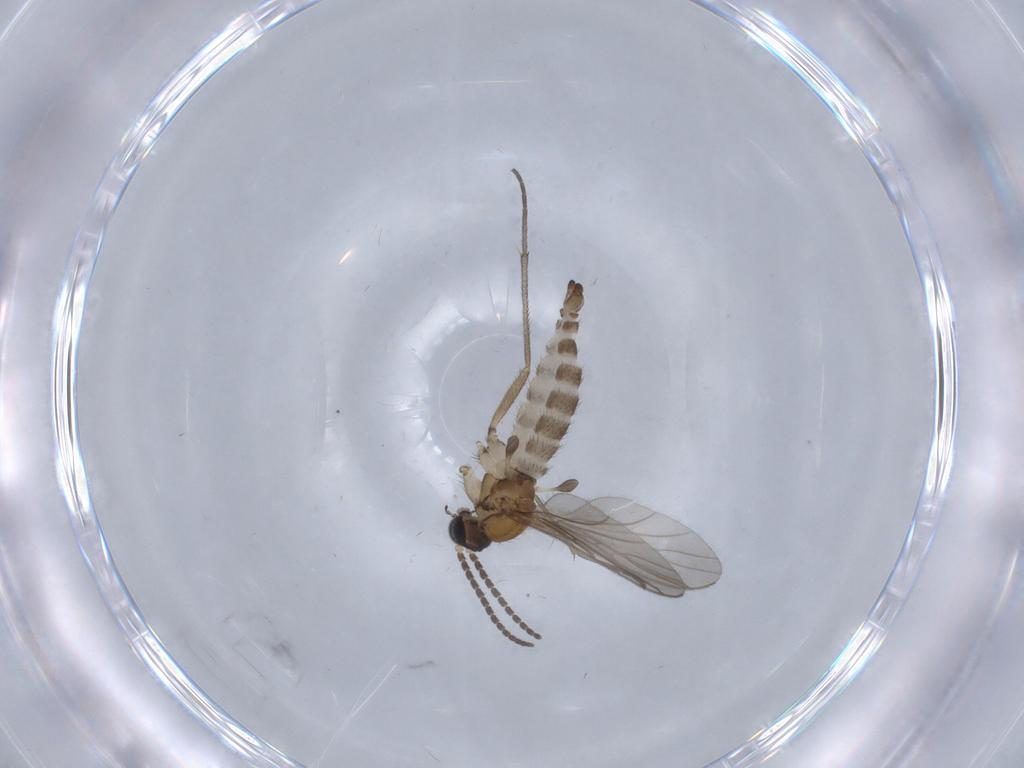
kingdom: Animalia
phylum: Arthropoda
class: Insecta
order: Diptera
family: Sciaridae
